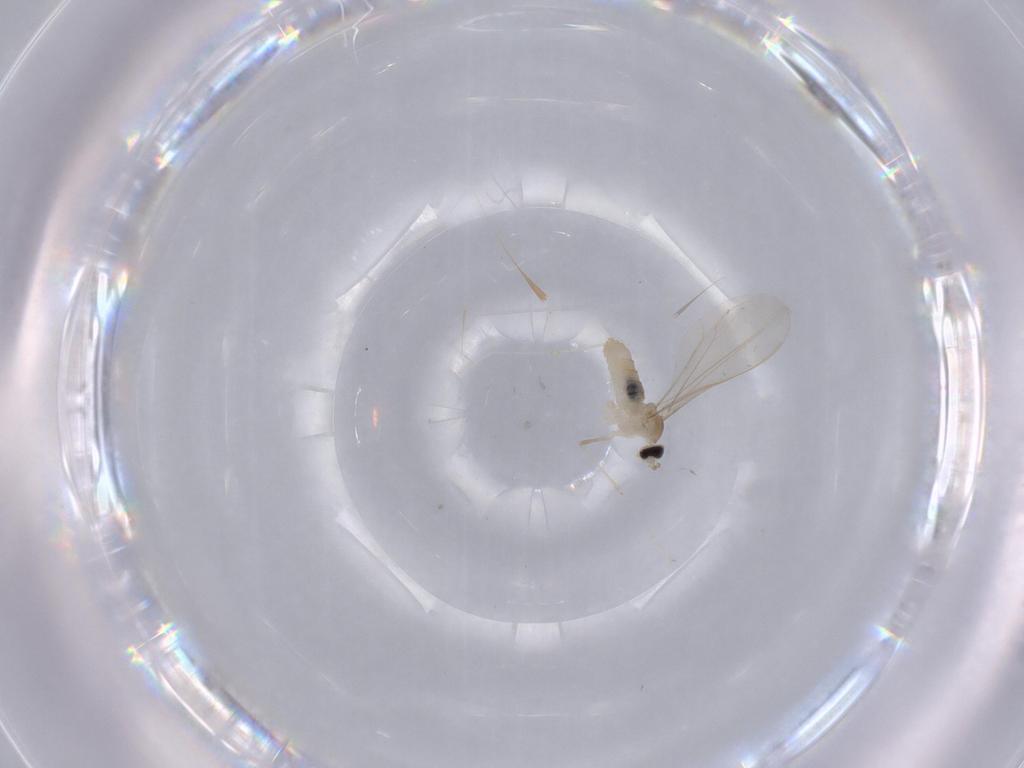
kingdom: Animalia
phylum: Arthropoda
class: Insecta
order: Diptera
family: Cecidomyiidae
